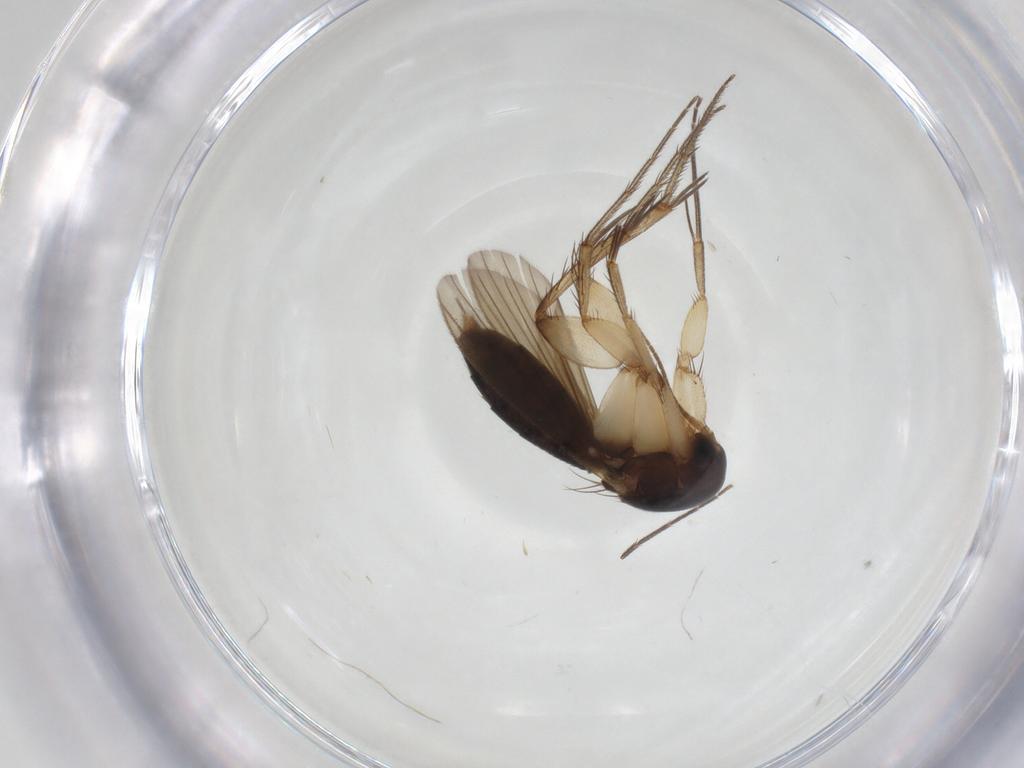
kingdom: Animalia
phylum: Arthropoda
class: Insecta
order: Diptera
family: Mycetophilidae
